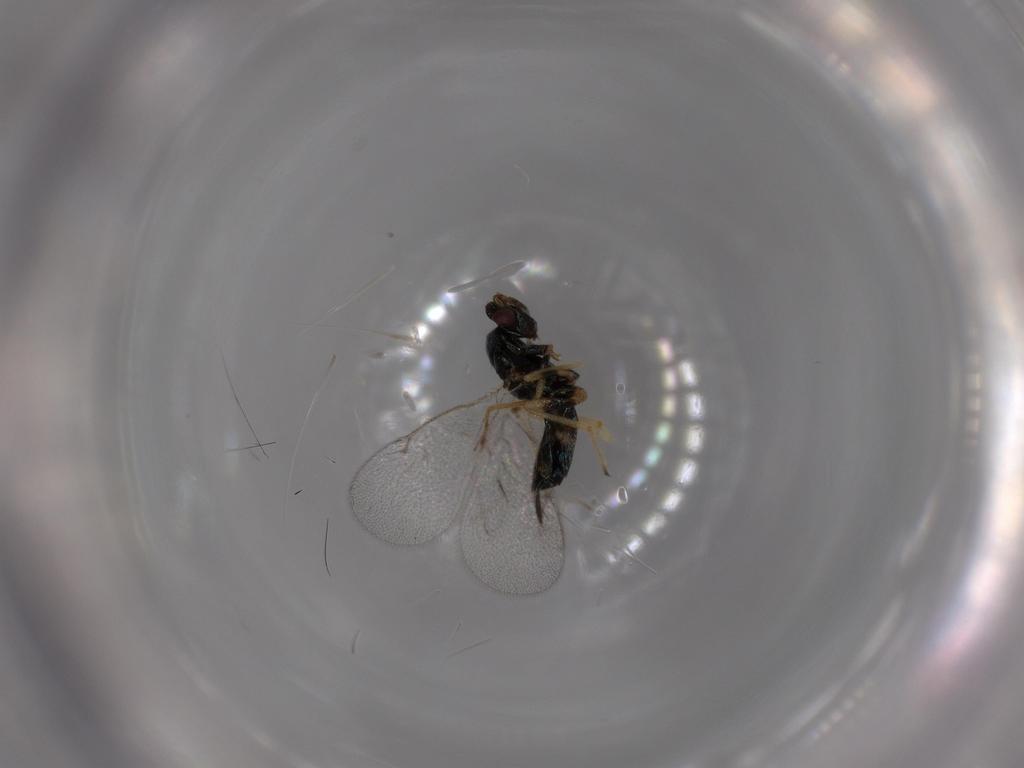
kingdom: Animalia
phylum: Arthropoda
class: Insecta
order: Hymenoptera
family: Eulophidae
